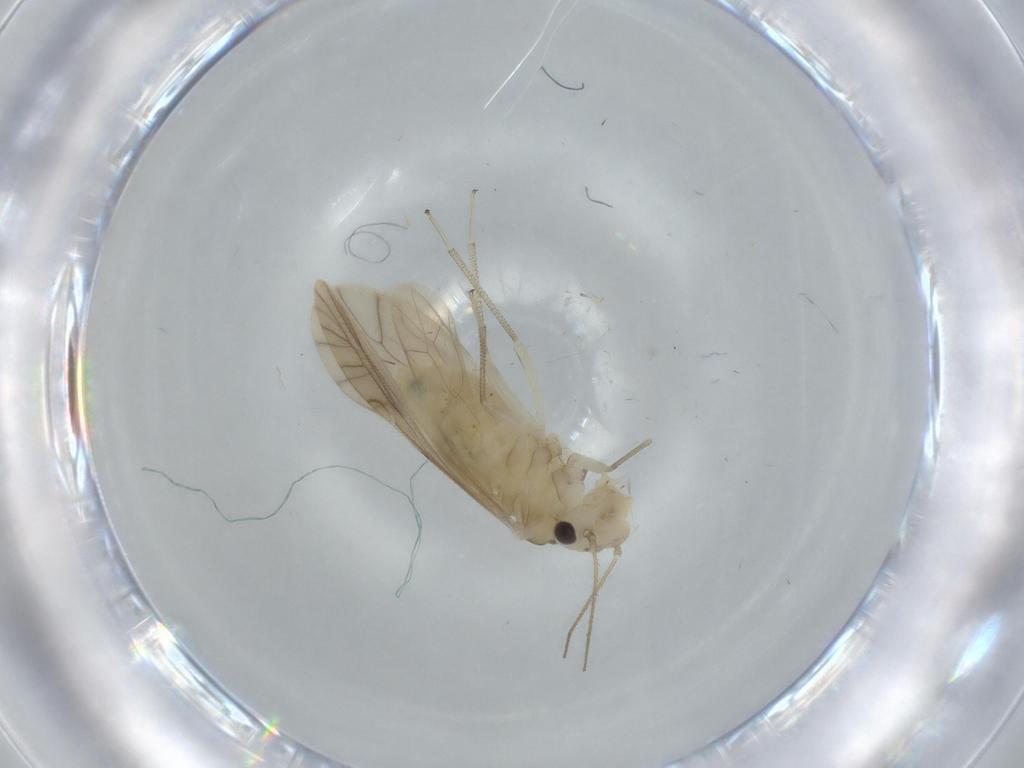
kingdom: Animalia
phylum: Arthropoda
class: Insecta
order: Psocodea
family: Caeciliusidae
